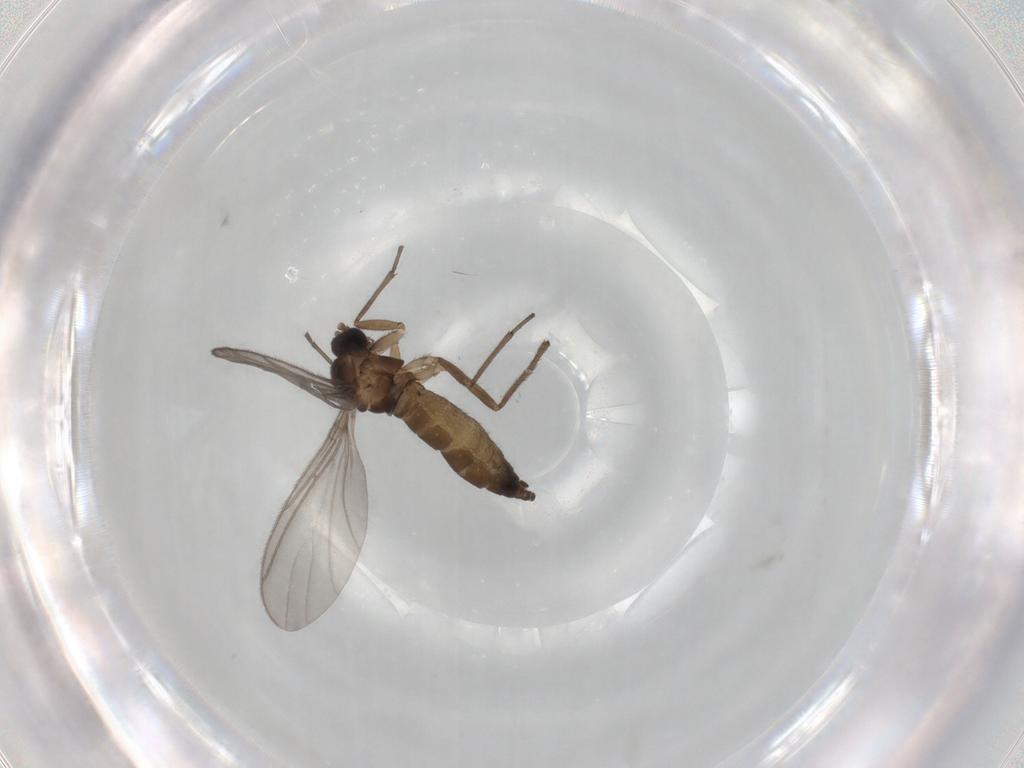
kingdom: Animalia
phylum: Arthropoda
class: Insecta
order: Diptera
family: Sciaridae
